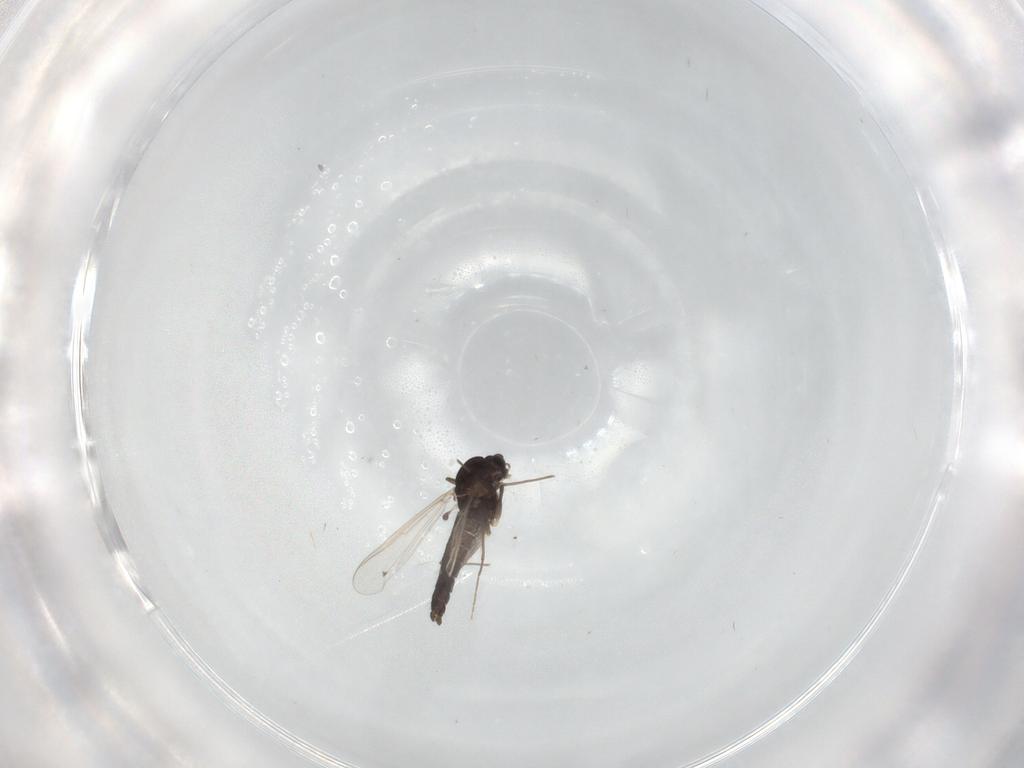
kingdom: Animalia
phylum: Arthropoda
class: Insecta
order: Diptera
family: Chironomidae
